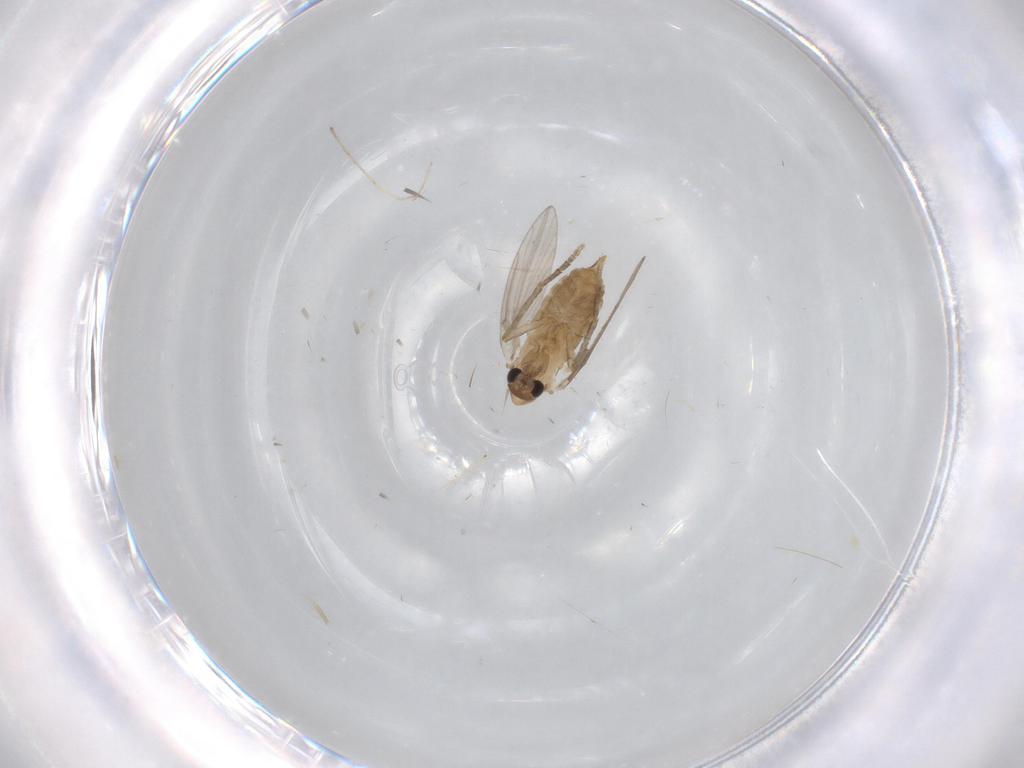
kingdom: Animalia
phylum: Arthropoda
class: Insecta
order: Diptera
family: Psychodidae
